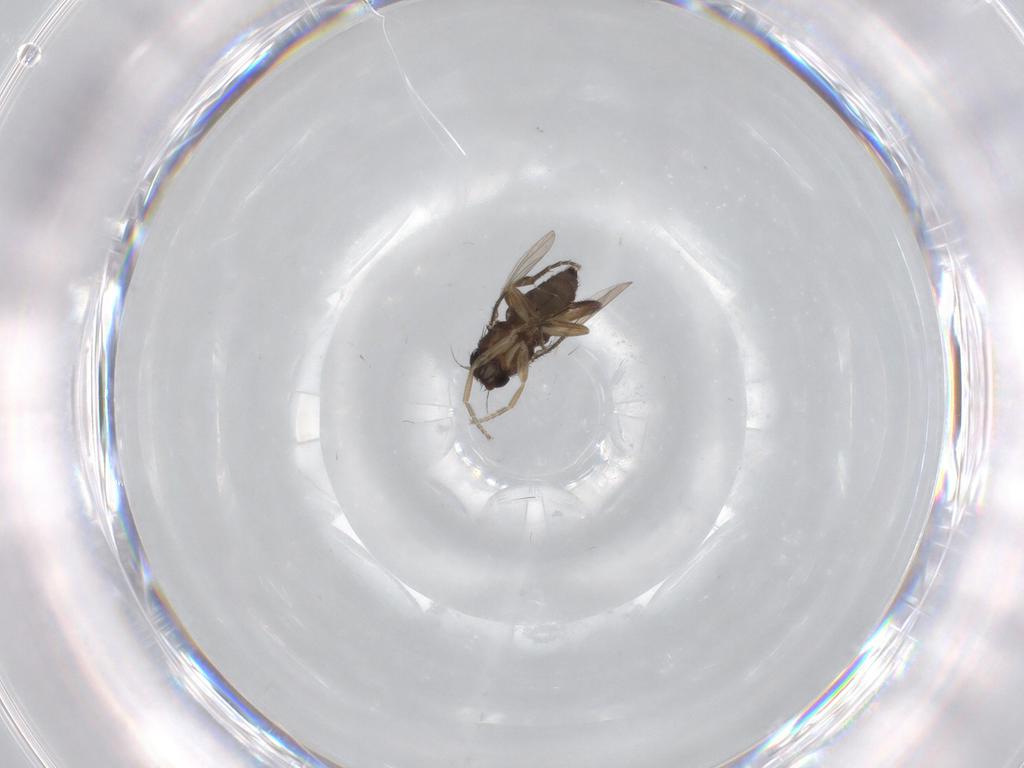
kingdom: Animalia
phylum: Arthropoda
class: Insecta
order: Diptera
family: Phoridae
